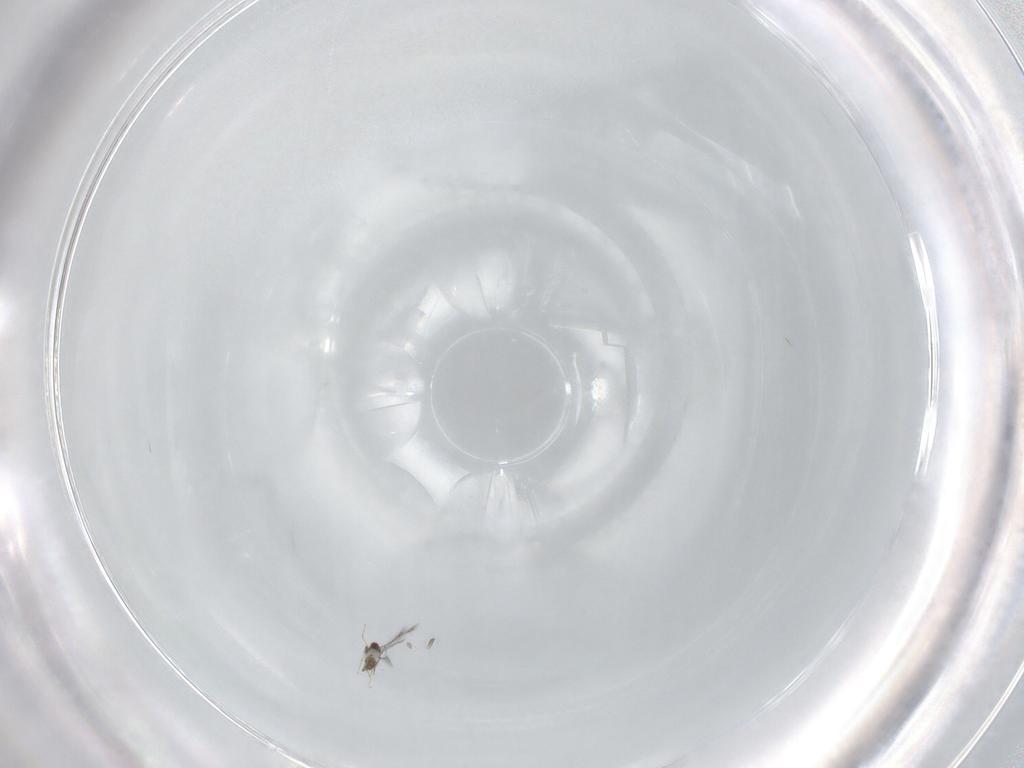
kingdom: Animalia
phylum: Arthropoda
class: Insecta
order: Hymenoptera
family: Mymaridae
